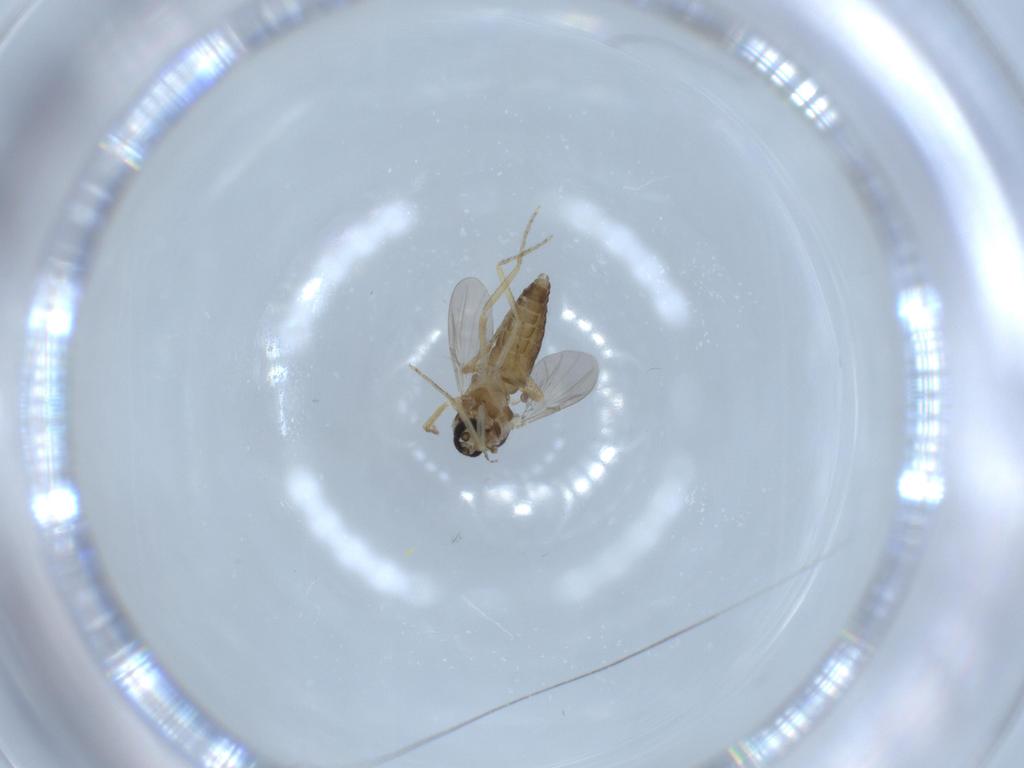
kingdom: Animalia
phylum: Arthropoda
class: Insecta
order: Diptera
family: Ceratopogonidae
